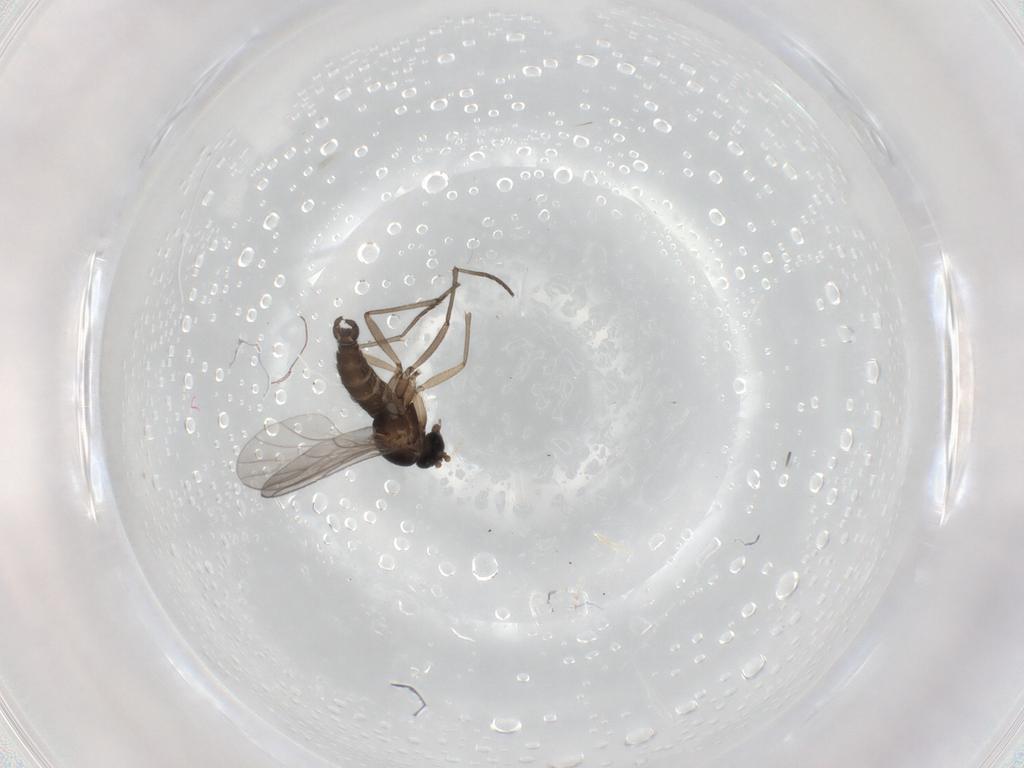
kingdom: Animalia
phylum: Arthropoda
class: Insecta
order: Diptera
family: Sciaridae
